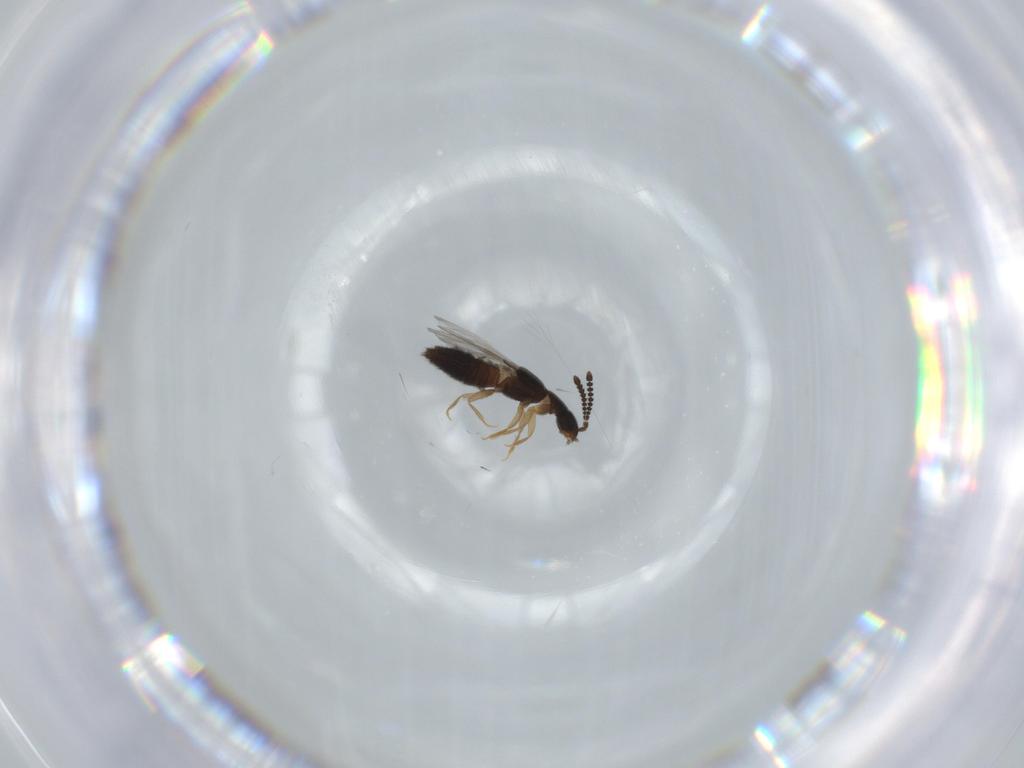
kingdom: Animalia
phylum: Arthropoda
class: Insecta
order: Coleoptera
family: Staphylinidae
